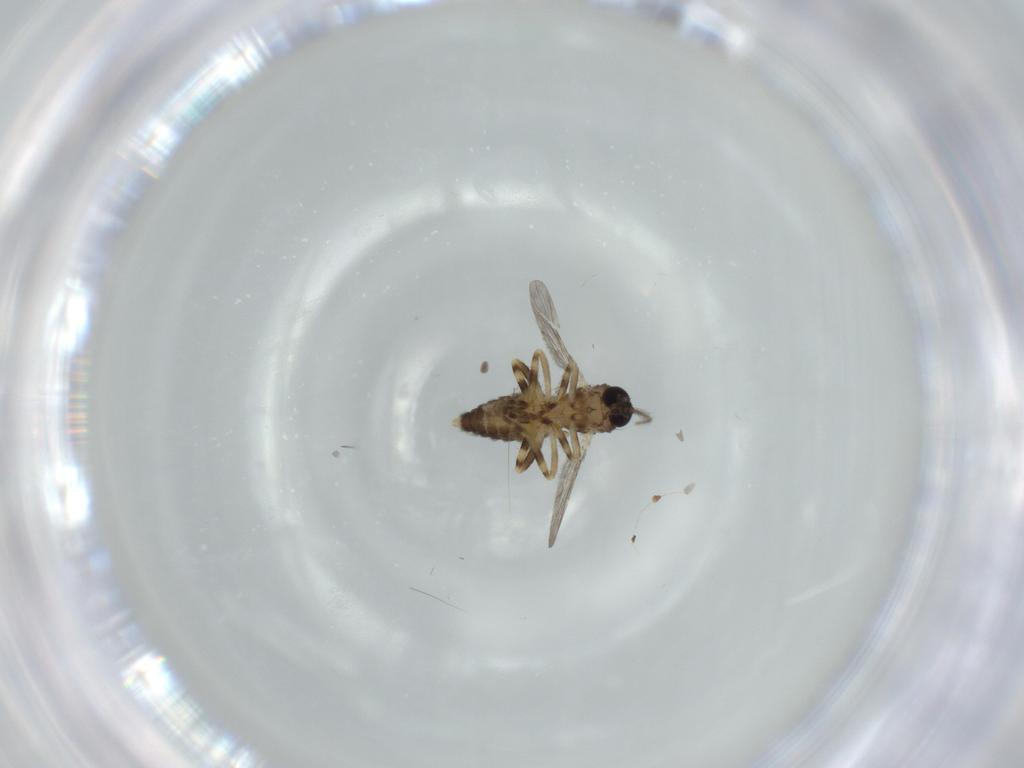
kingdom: Animalia
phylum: Arthropoda
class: Insecta
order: Diptera
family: Ceratopogonidae
